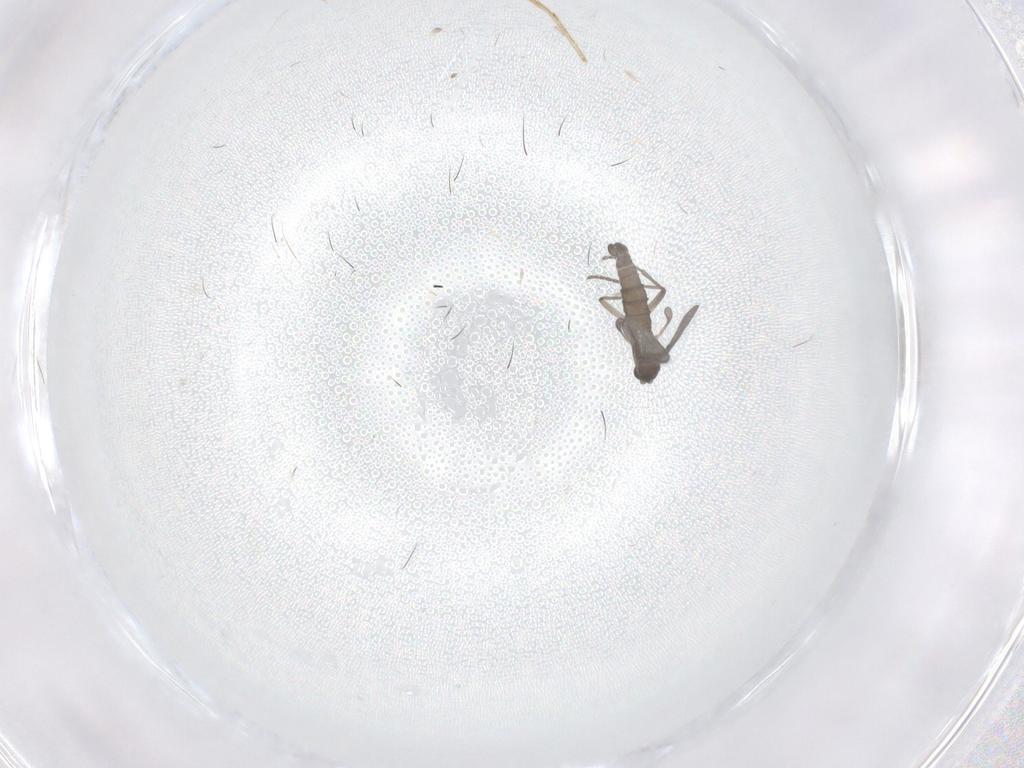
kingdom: Animalia
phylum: Arthropoda
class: Insecta
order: Diptera
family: Sciaridae
